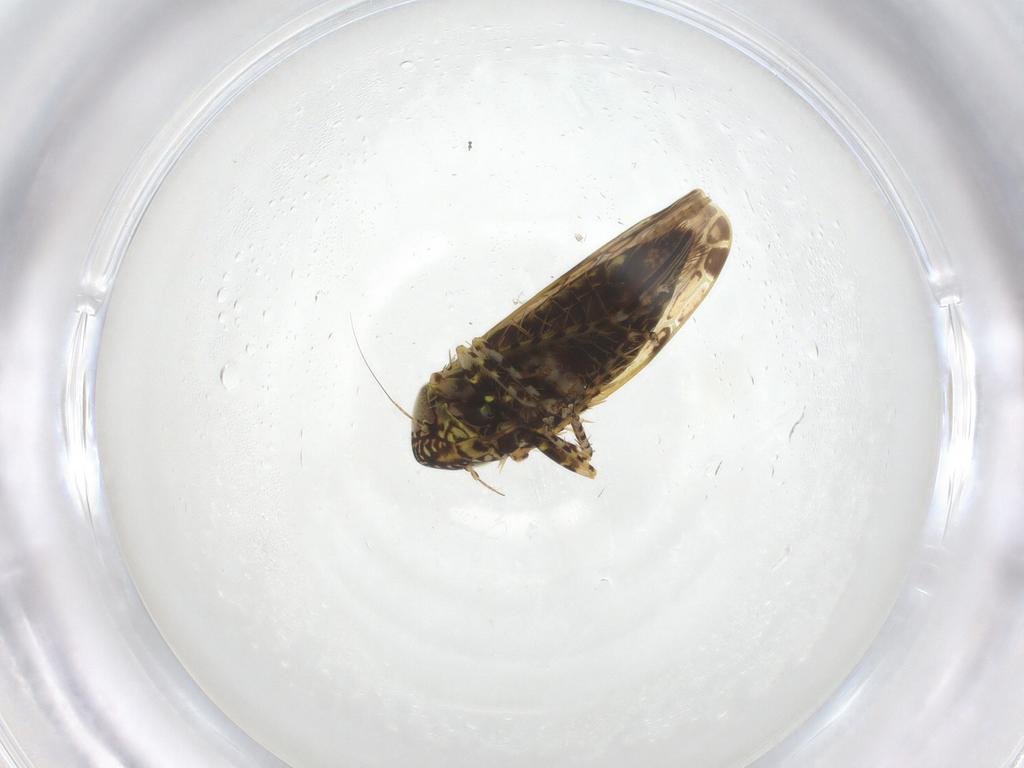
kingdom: Animalia
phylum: Arthropoda
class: Insecta
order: Hemiptera
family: Cicadellidae
